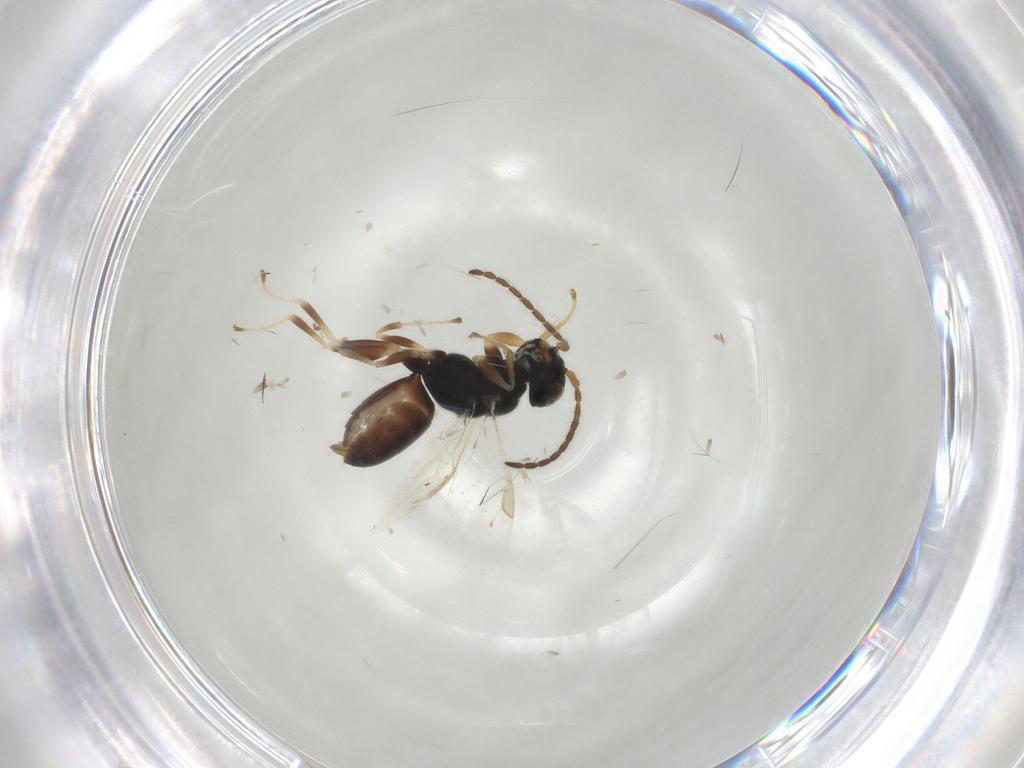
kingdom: Animalia
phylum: Arthropoda
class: Insecta
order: Hymenoptera
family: Dryinidae
